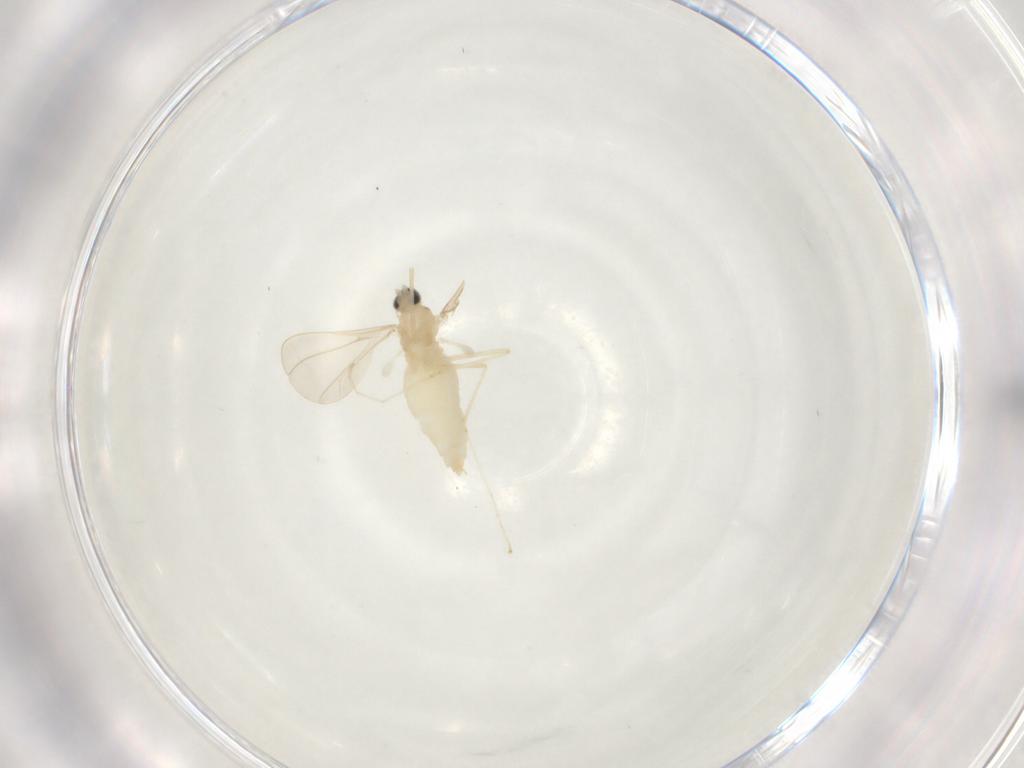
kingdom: Animalia
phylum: Arthropoda
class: Insecta
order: Diptera
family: Cecidomyiidae
